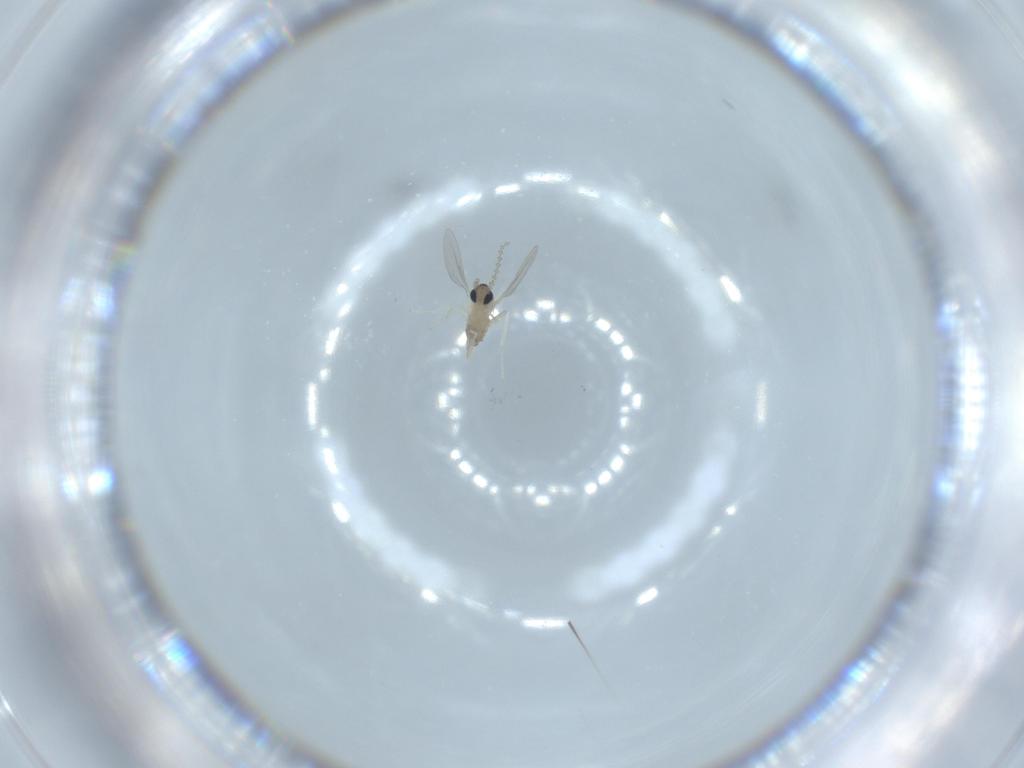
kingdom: Animalia
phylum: Arthropoda
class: Insecta
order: Diptera
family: Cecidomyiidae
